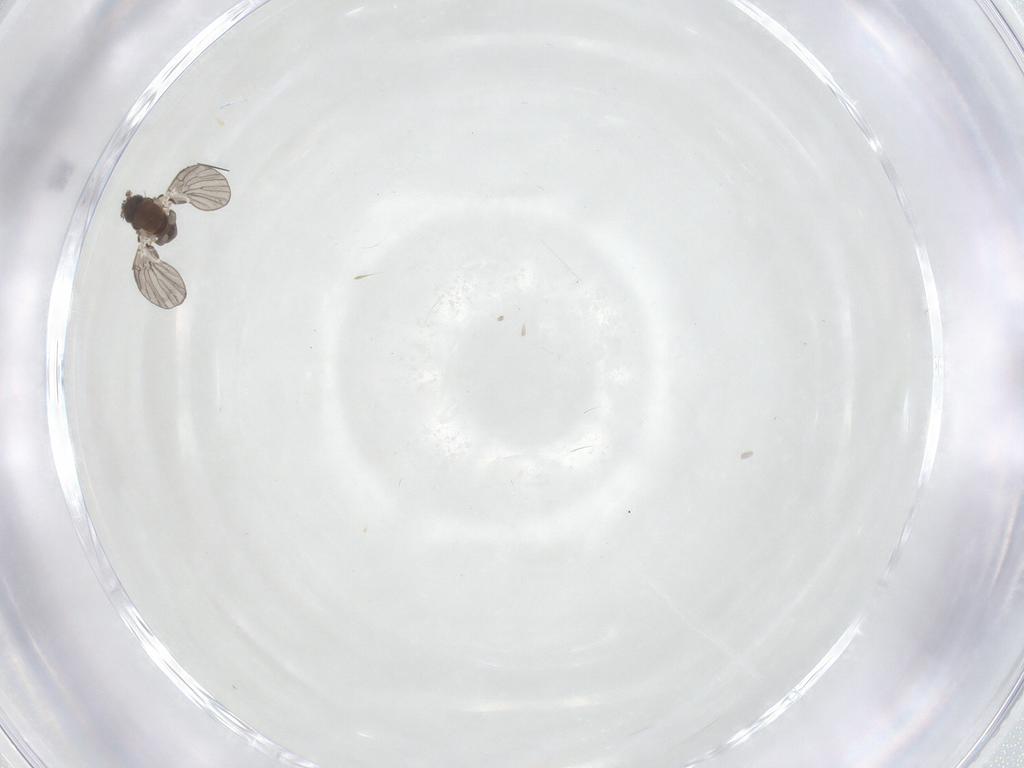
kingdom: Animalia
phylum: Arthropoda
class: Insecta
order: Diptera
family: Psychodidae
